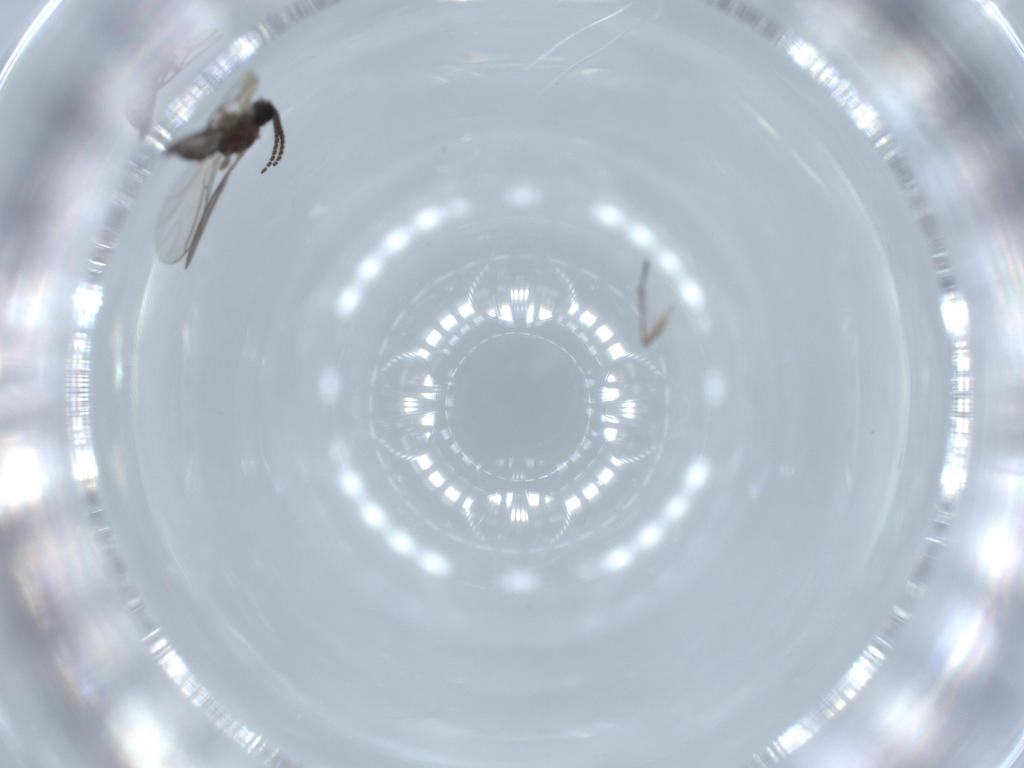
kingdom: Animalia
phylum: Arthropoda
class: Insecta
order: Diptera
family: Sciaridae
